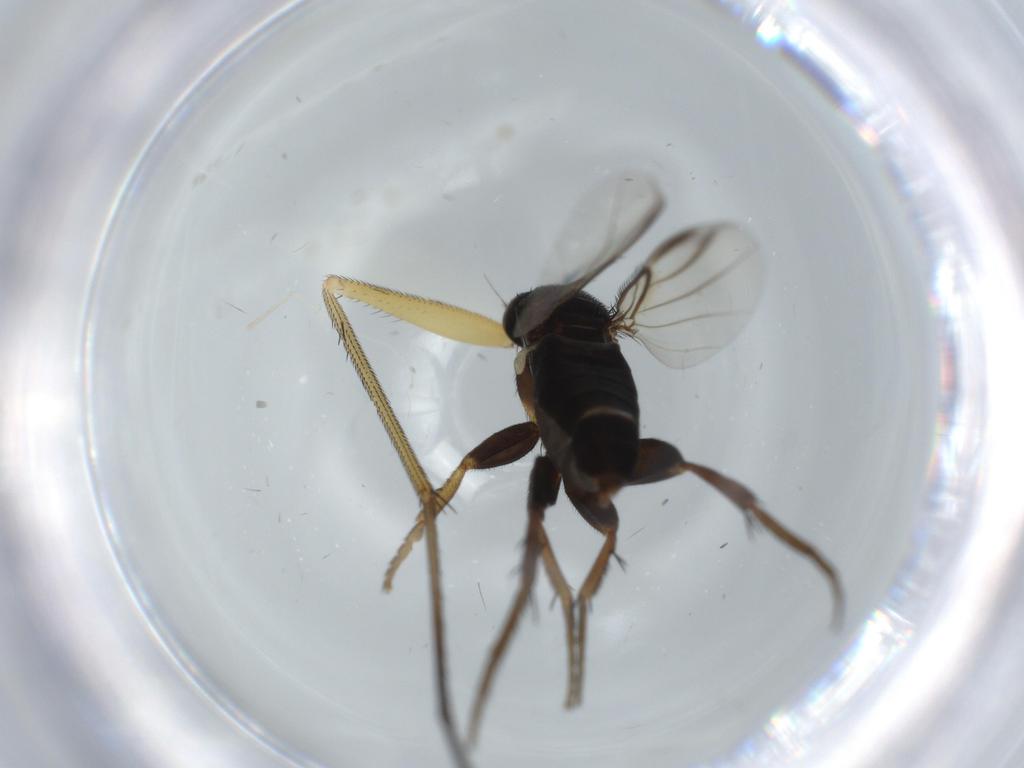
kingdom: Animalia
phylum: Arthropoda
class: Insecta
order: Diptera
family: Phoridae
